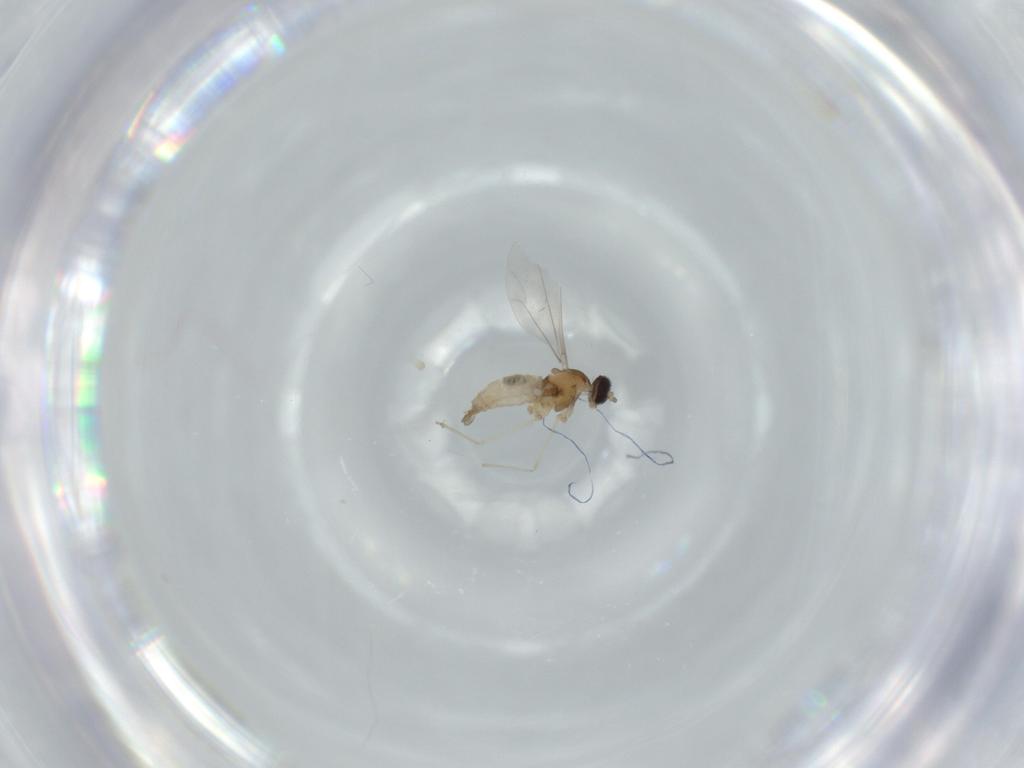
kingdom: Animalia
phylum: Arthropoda
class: Insecta
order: Diptera
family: Cecidomyiidae
